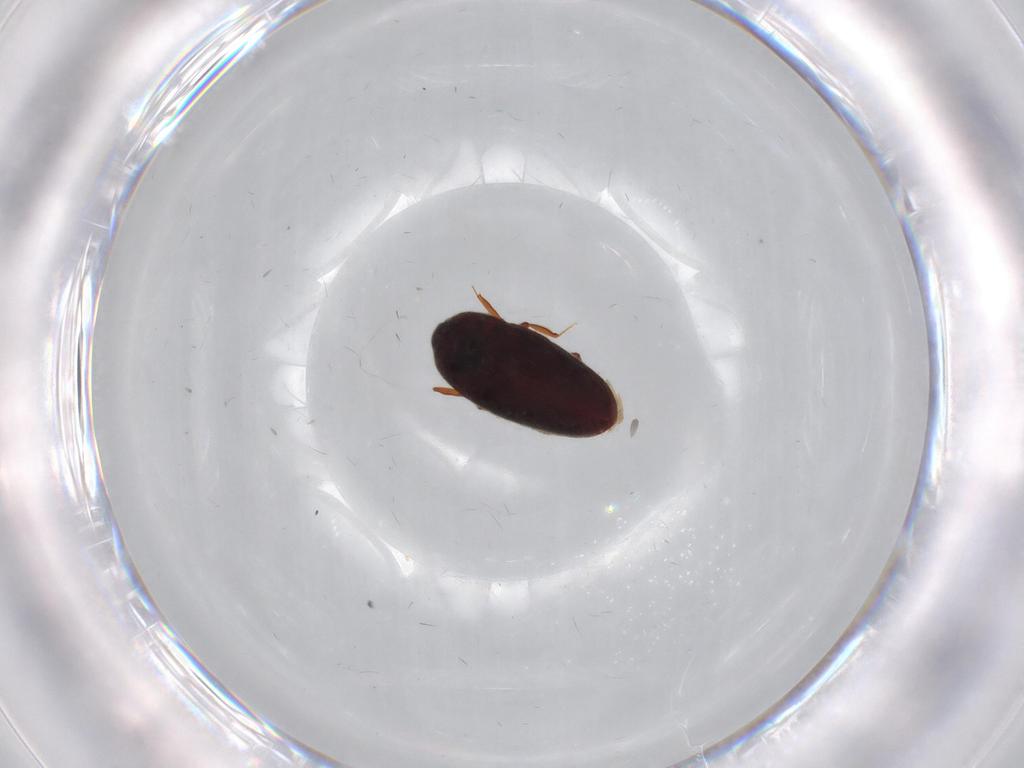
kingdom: Animalia
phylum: Arthropoda
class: Insecta
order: Coleoptera
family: Throscidae
